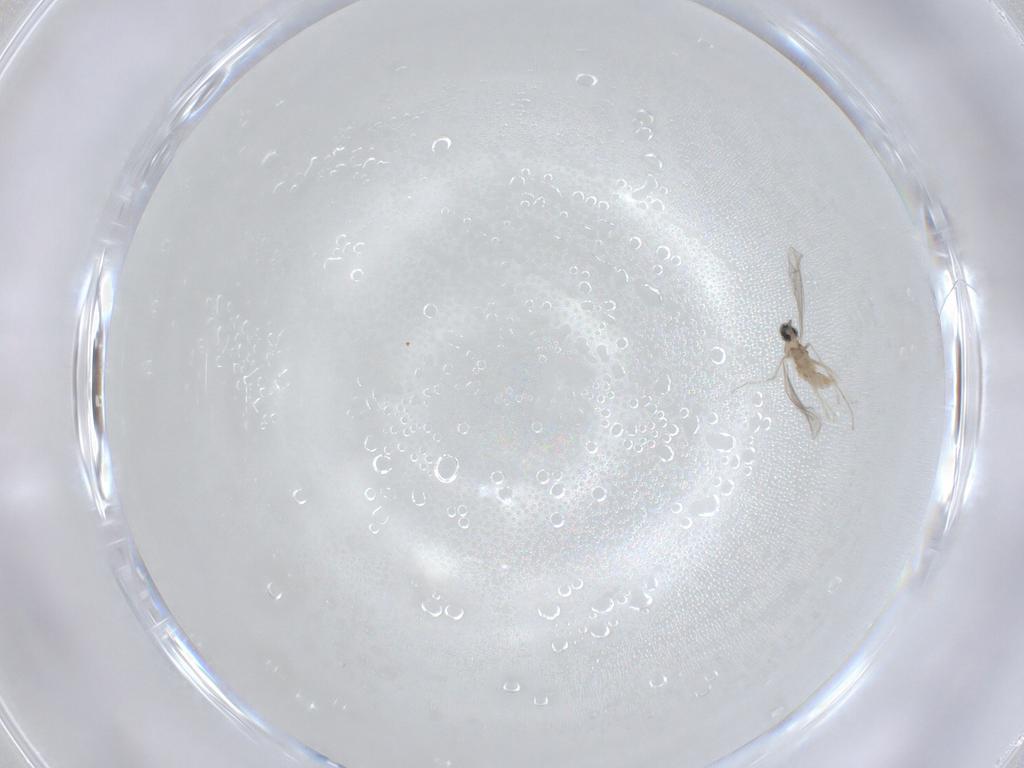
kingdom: Animalia
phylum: Arthropoda
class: Insecta
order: Diptera
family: Cecidomyiidae
